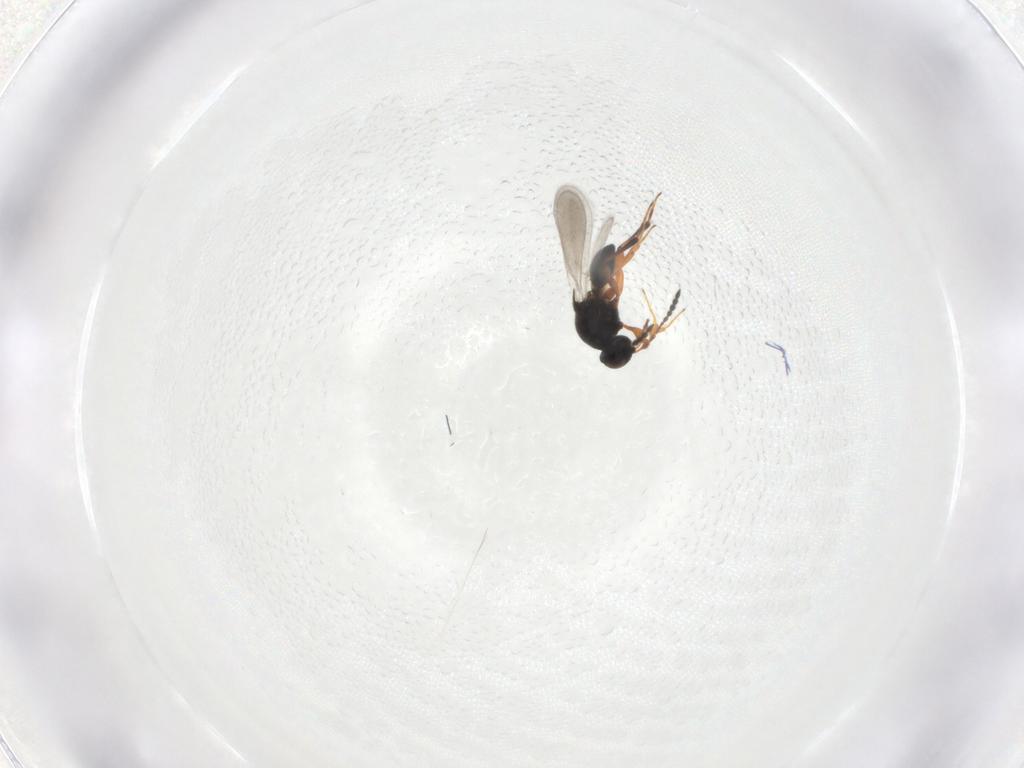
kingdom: Animalia
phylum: Arthropoda
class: Insecta
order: Hymenoptera
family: Platygastridae
